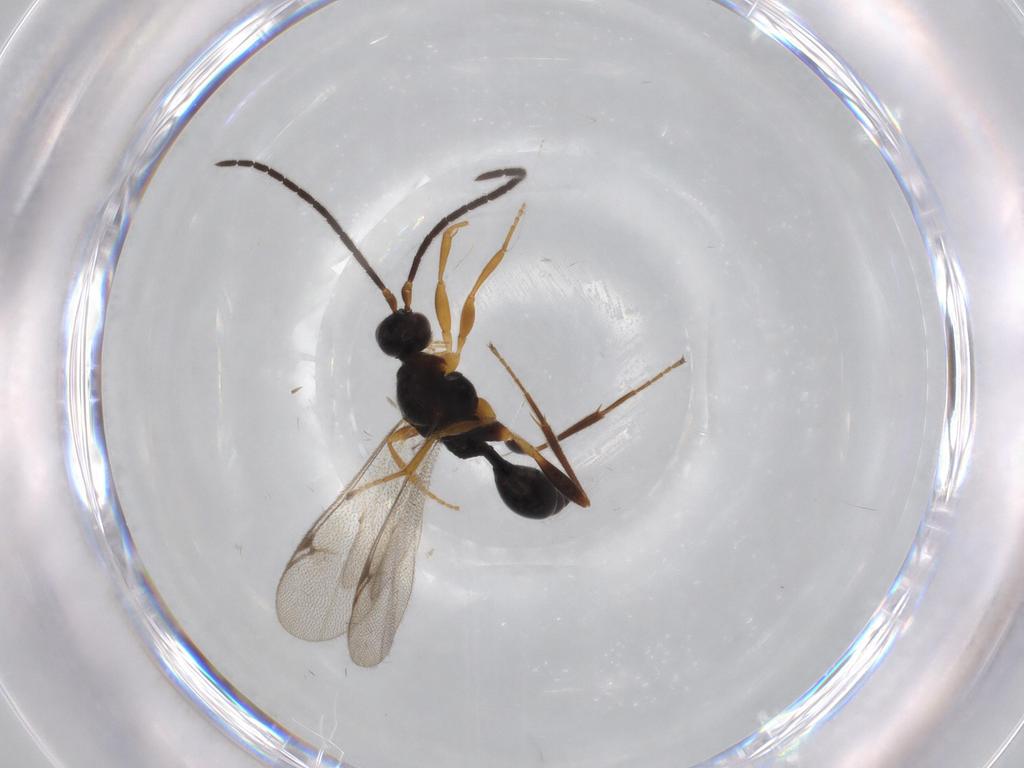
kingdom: Animalia
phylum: Arthropoda
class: Insecta
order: Hymenoptera
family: Proctotrupidae
